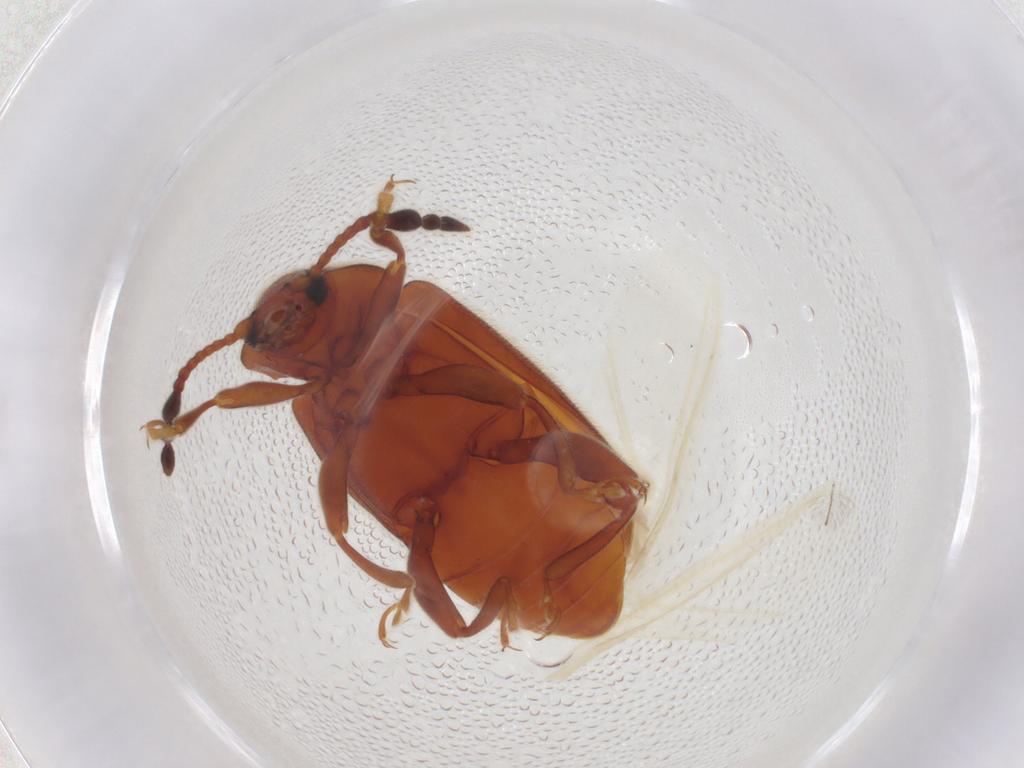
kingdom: Animalia
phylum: Arthropoda
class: Insecta
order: Coleoptera
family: Endomychidae
